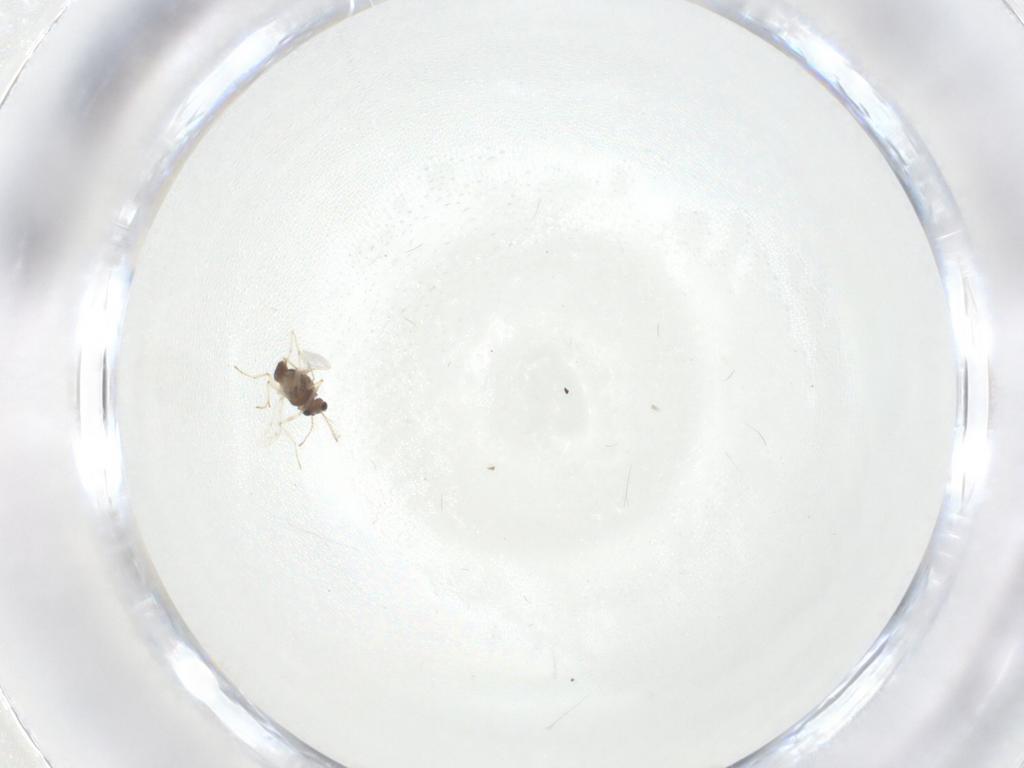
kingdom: Animalia
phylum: Arthropoda
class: Insecta
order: Diptera
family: Chironomidae
